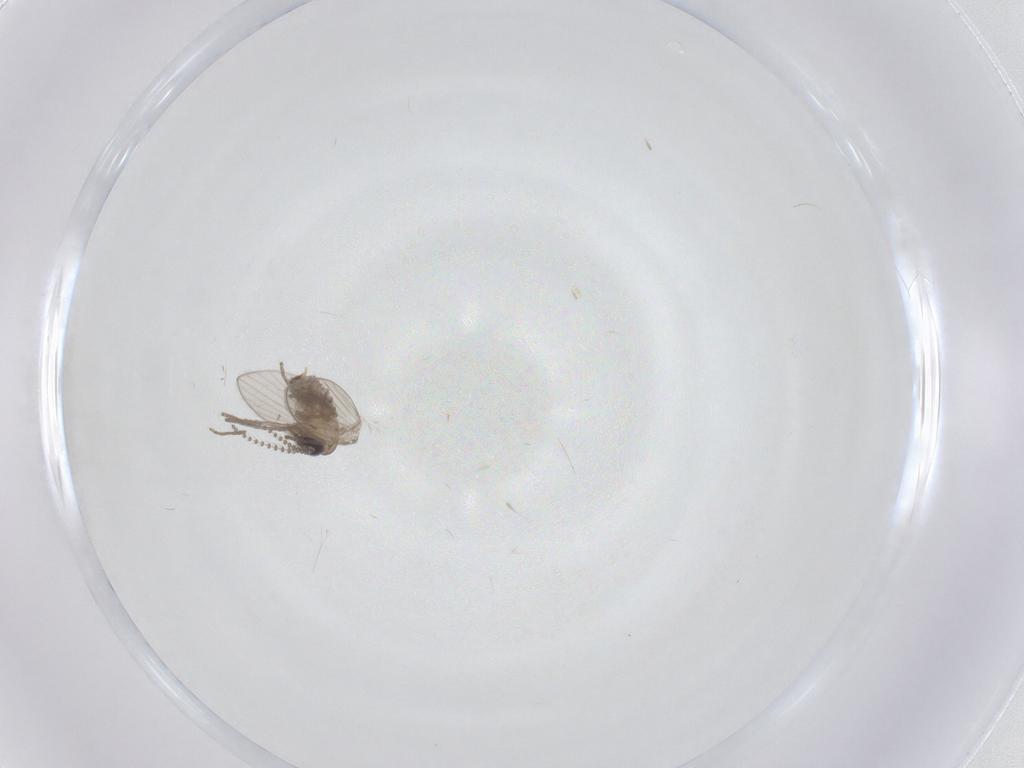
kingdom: Animalia
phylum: Arthropoda
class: Insecta
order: Diptera
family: Chironomidae
